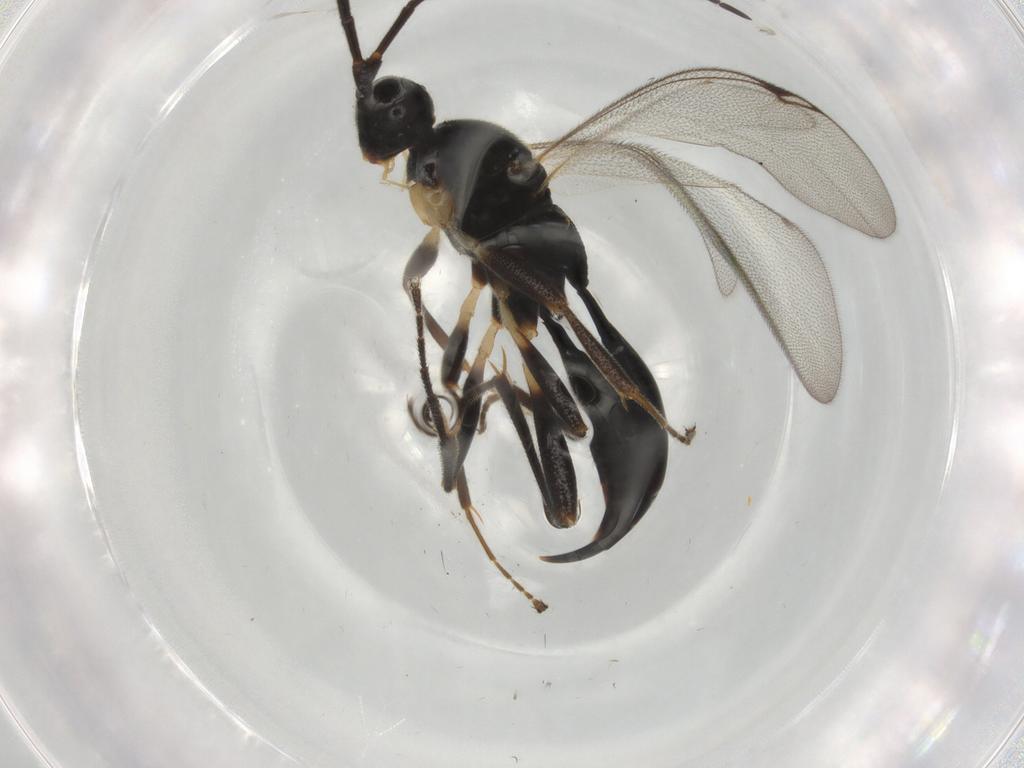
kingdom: Animalia
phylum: Arthropoda
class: Insecta
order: Hymenoptera
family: Proctotrupidae
